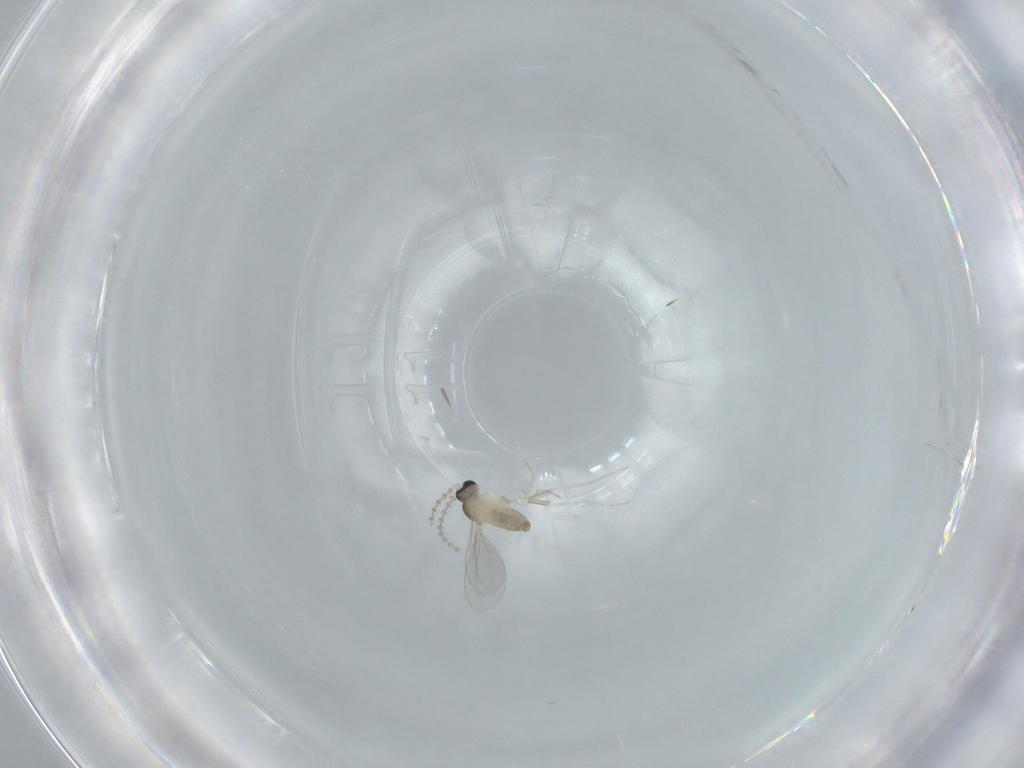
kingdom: Animalia
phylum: Arthropoda
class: Insecta
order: Diptera
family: Cecidomyiidae
